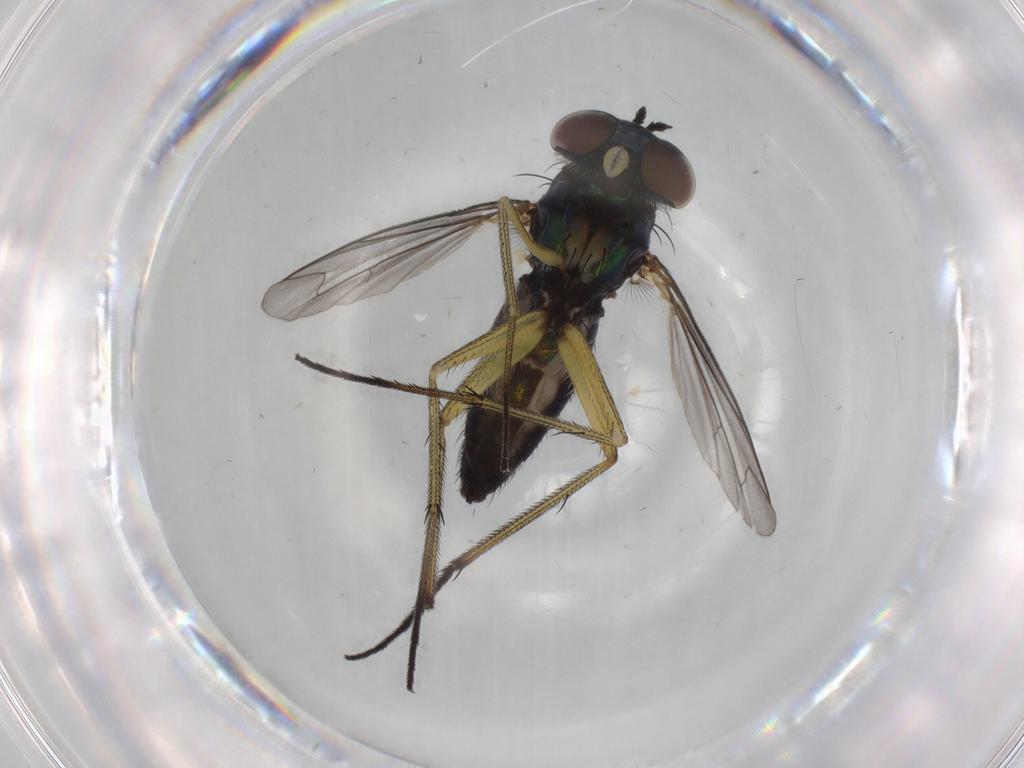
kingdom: Animalia
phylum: Arthropoda
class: Insecta
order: Diptera
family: Dolichopodidae
